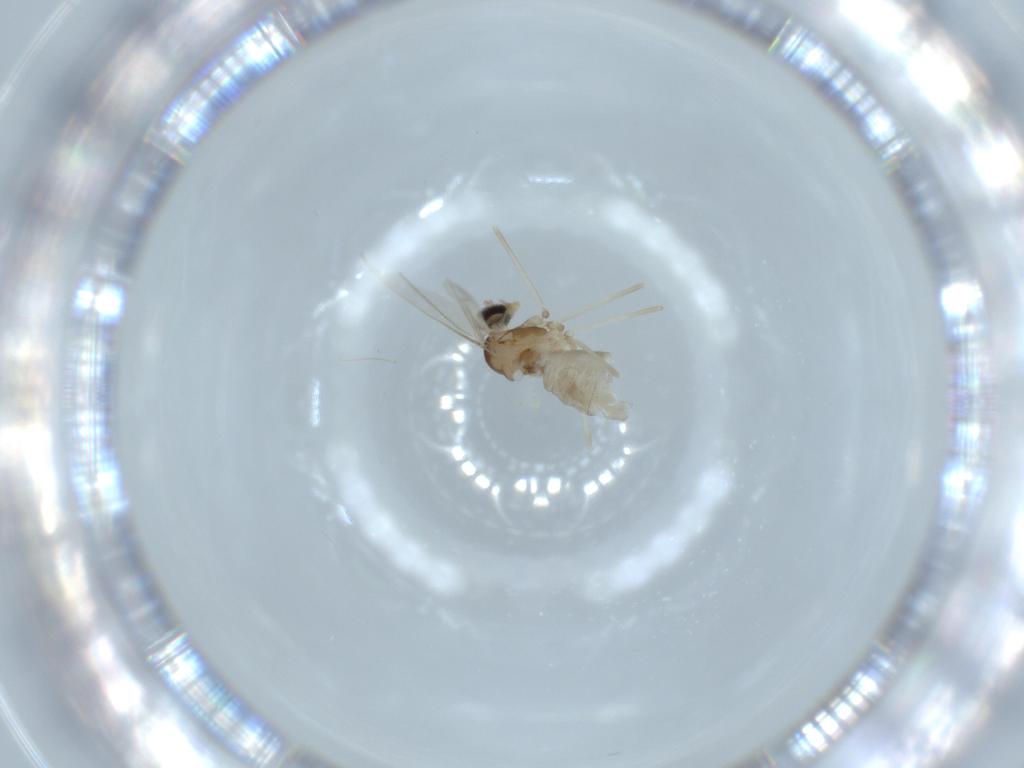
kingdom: Animalia
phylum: Arthropoda
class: Insecta
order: Diptera
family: Cecidomyiidae
